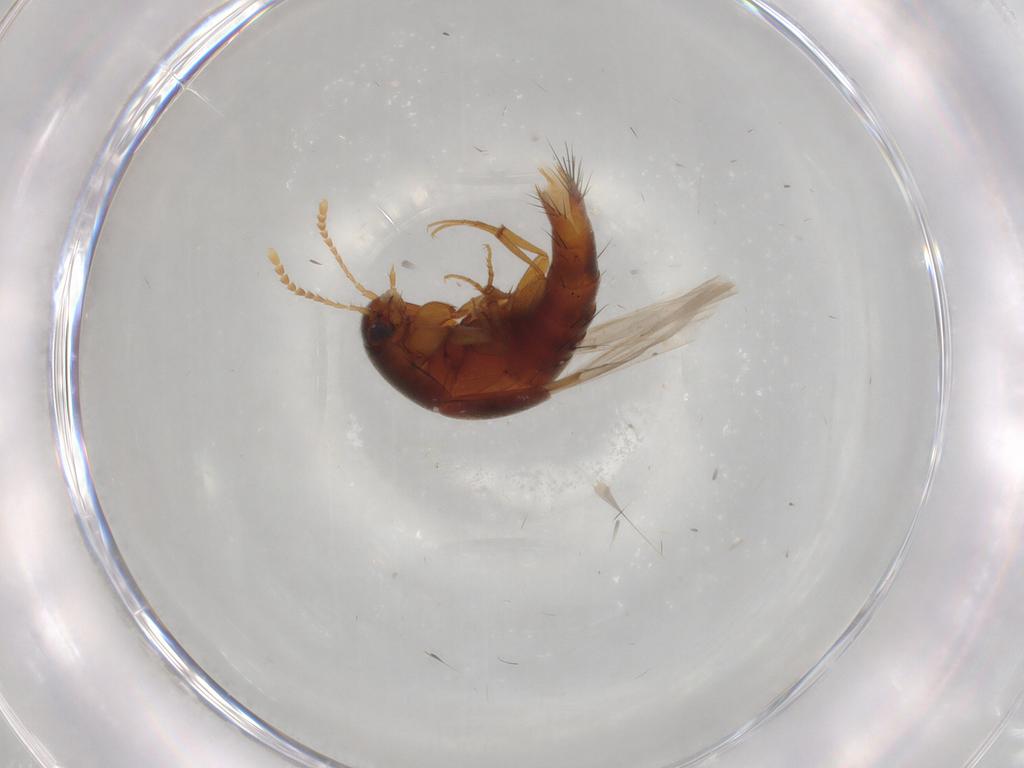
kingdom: Animalia
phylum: Arthropoda
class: Insecta
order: Coleoptera
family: Staphylinidae
